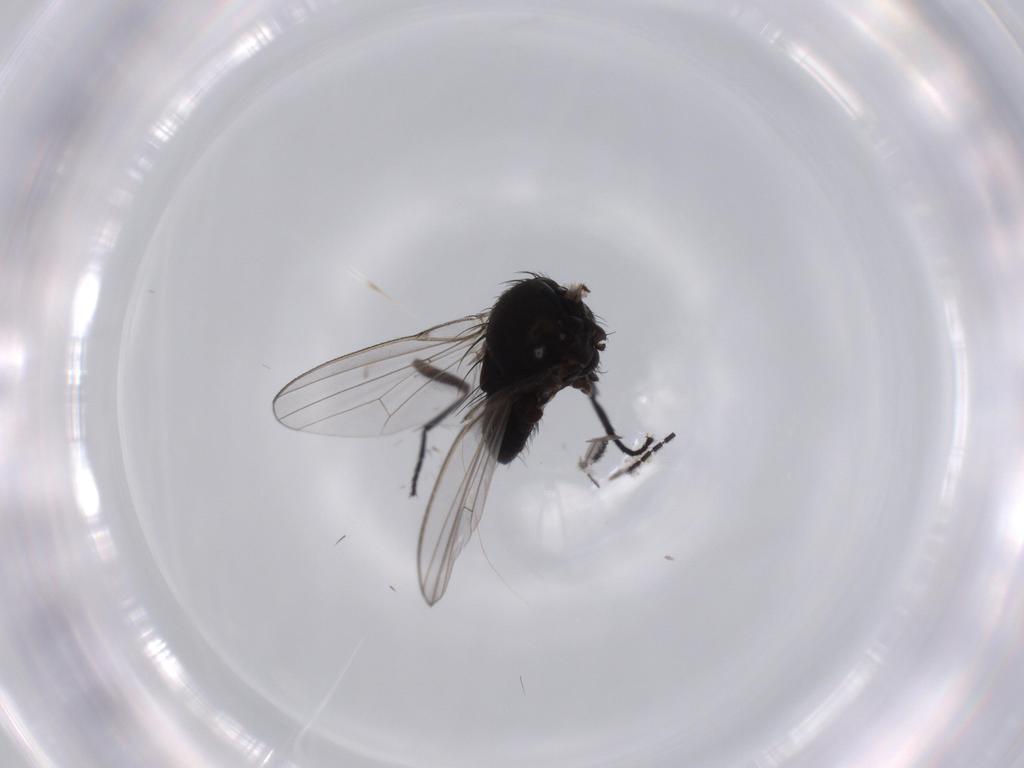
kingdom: Animalia
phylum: Arthropoda
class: Insecta
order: Diptera
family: Milichiidae
